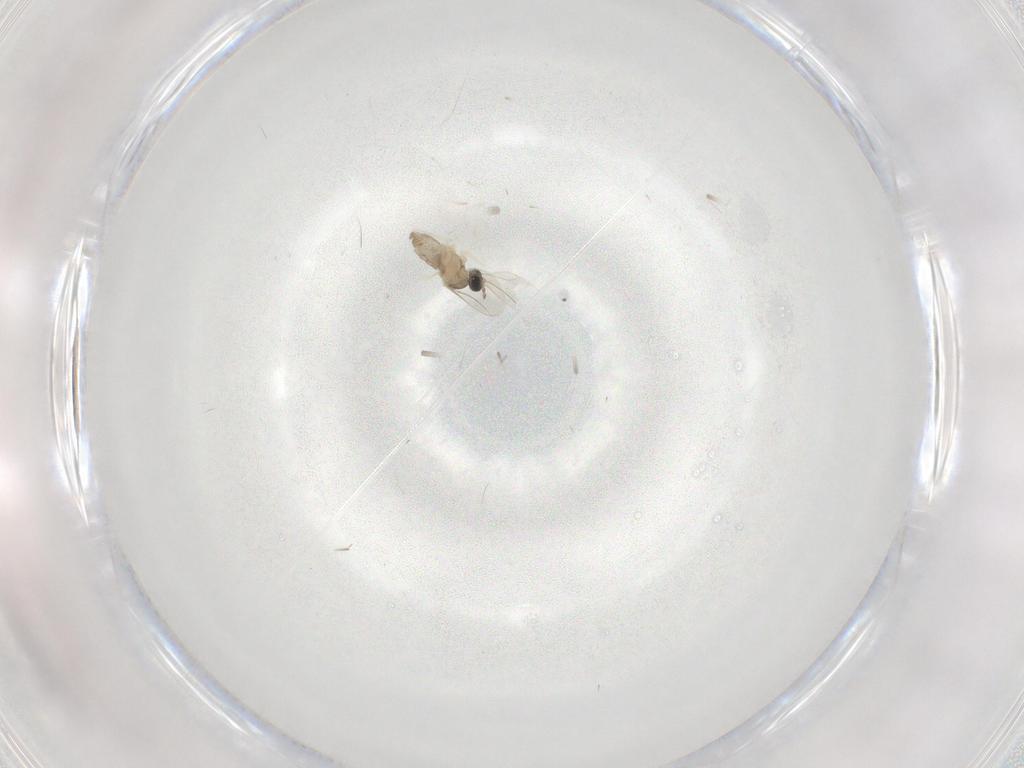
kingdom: Animalia
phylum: Arthropoda
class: Insecta
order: Diptera
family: Cecidomyiidae
